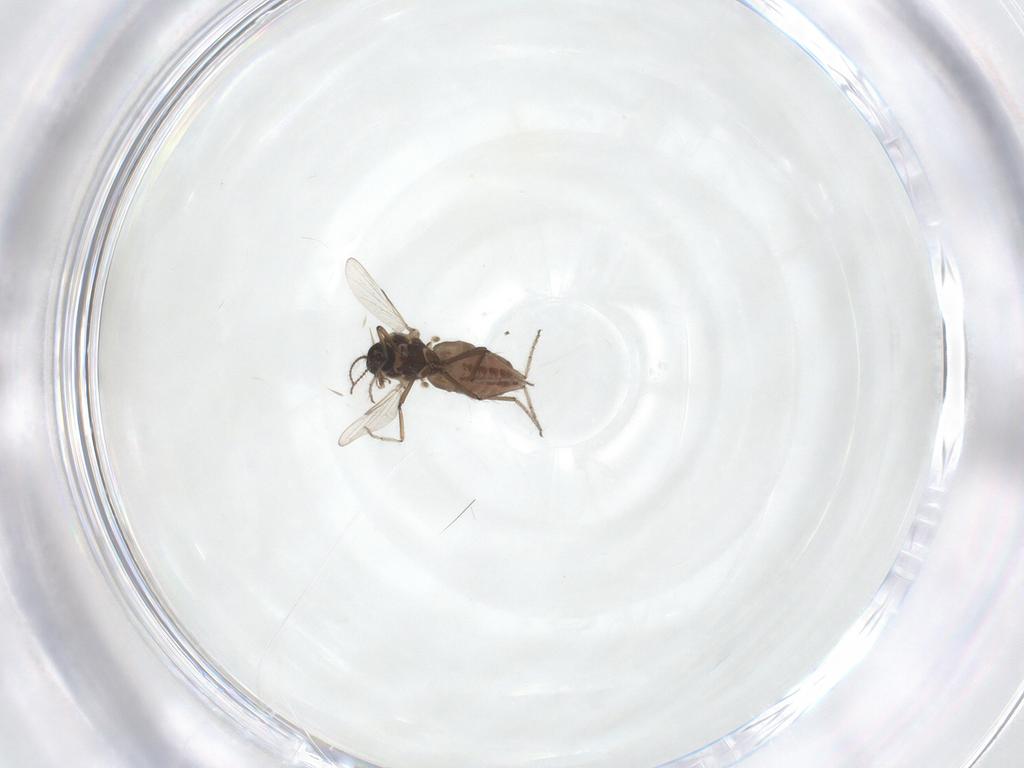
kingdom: Animalia
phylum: Arthropoda
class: Insecta
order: Diptera
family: Ceratopogonidae
